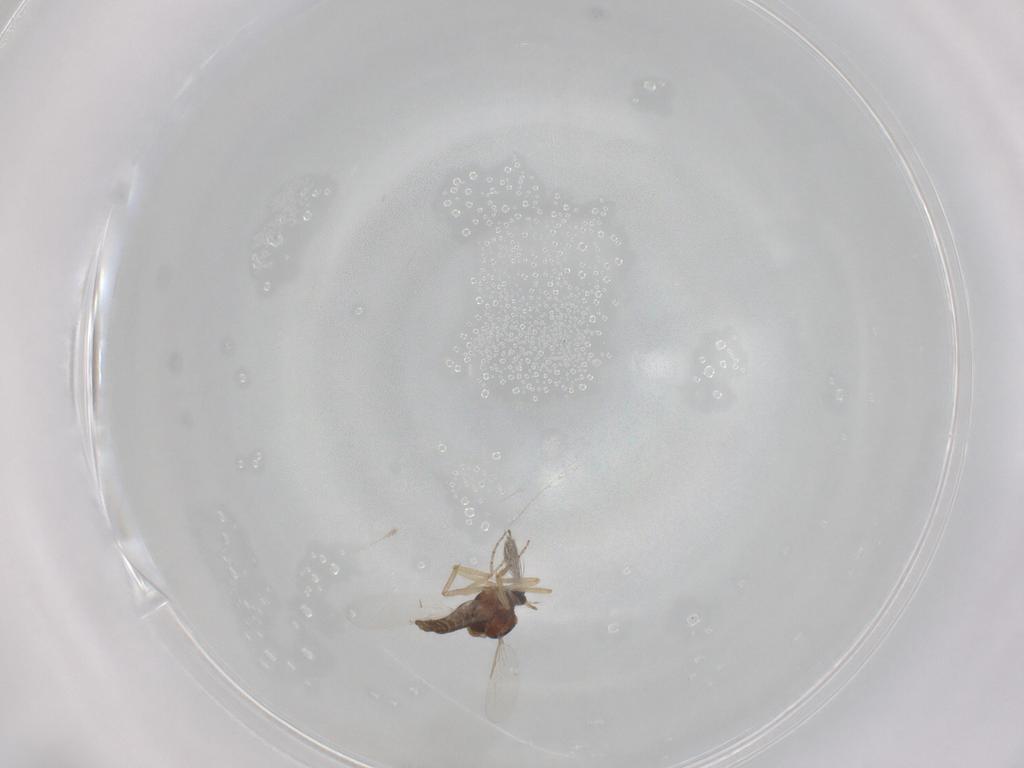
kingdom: Animalia
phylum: Arthropoda
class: Insecta
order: Diptera
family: Ceratopogonidae
